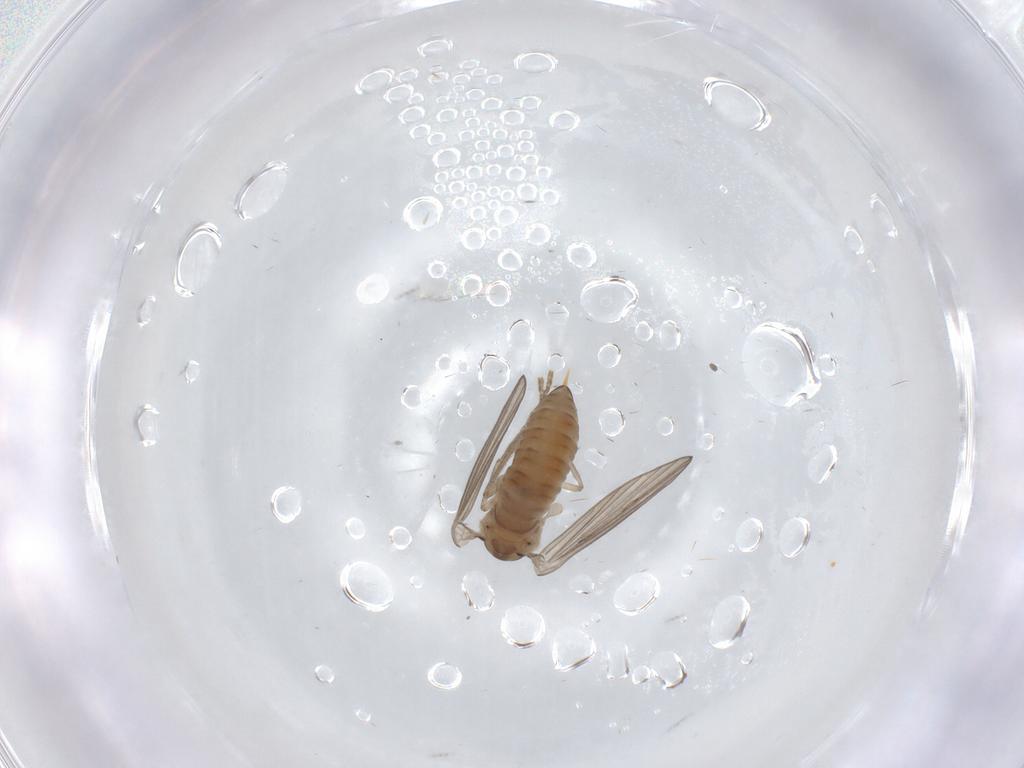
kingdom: Animalia
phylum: Arthropoda
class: Insecta
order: Diptera
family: Psychodidae
